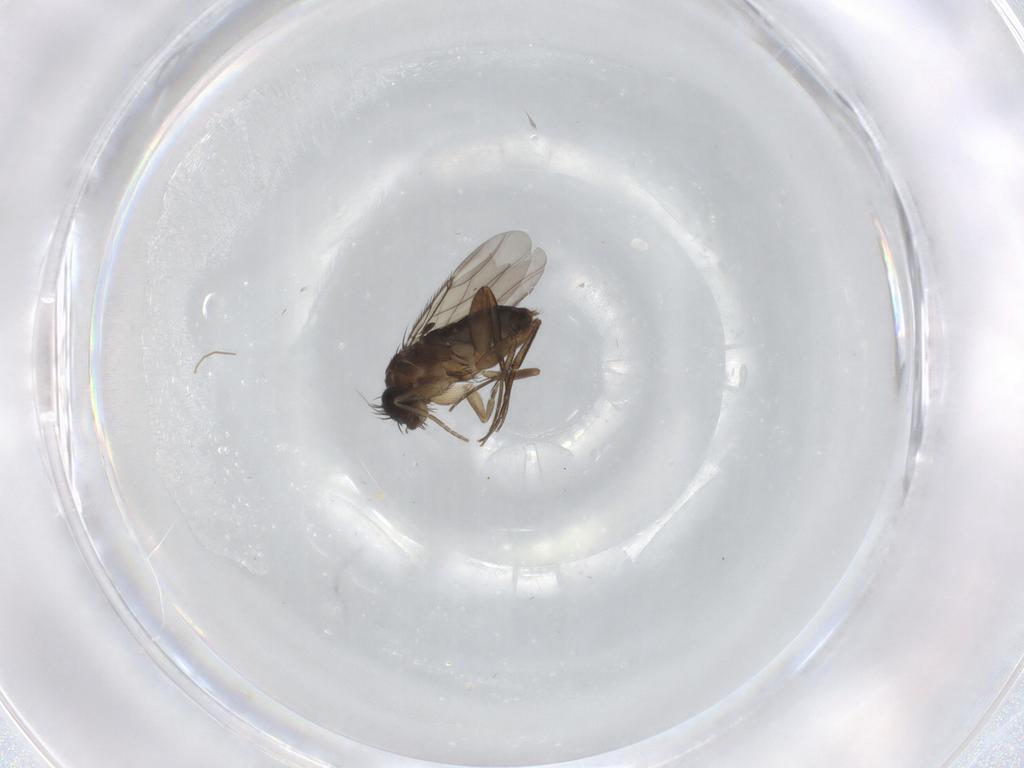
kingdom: Animalia
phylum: Arthropoda
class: Insecta
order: Diptera
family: Phoridae
